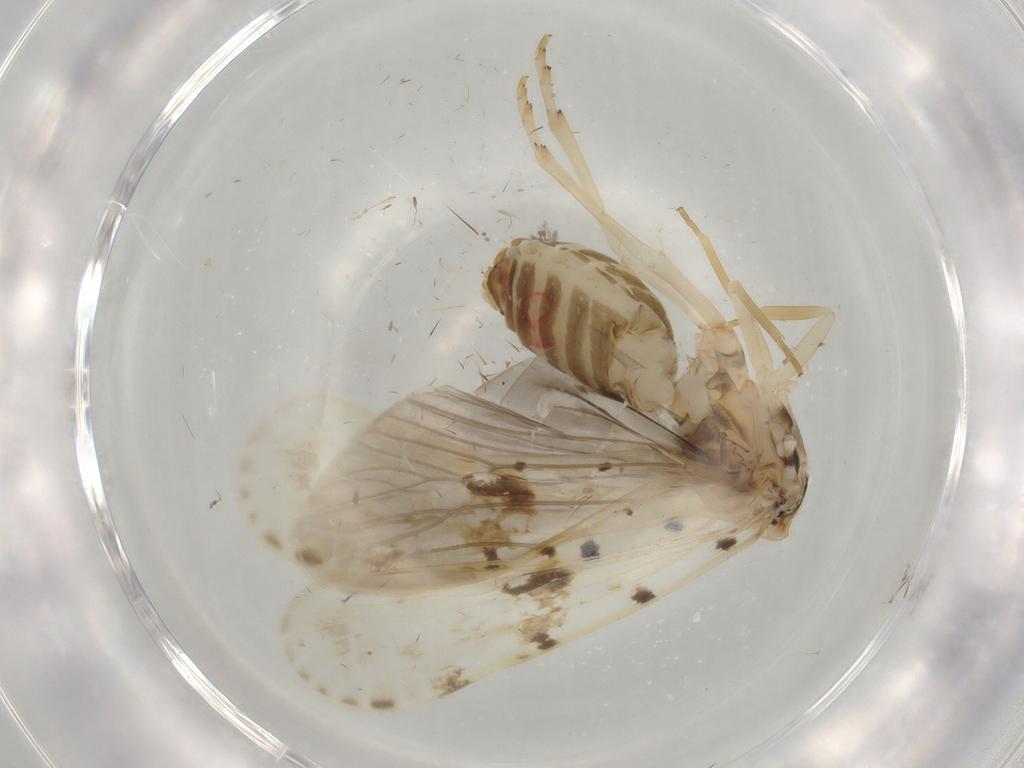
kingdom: Animalia
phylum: Arthropoda
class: Insecta
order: Hemiptera
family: Achilidae
